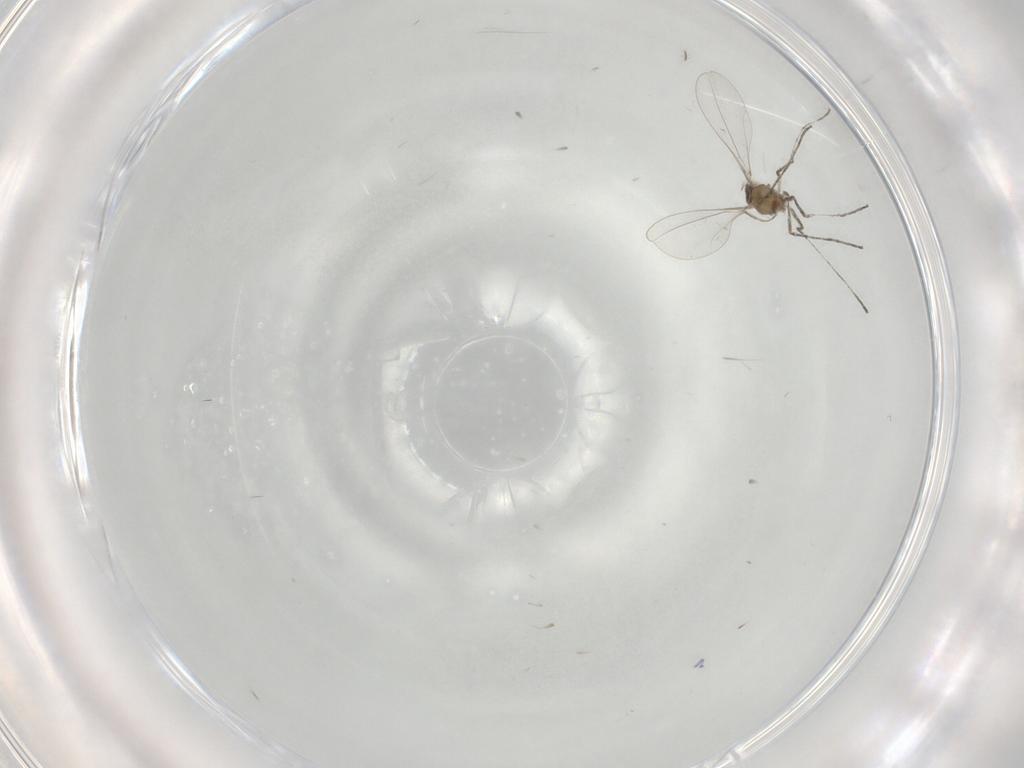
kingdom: Animalia
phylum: Arthropoda
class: Insecta
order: Diptera
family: Cecidomyiidae
